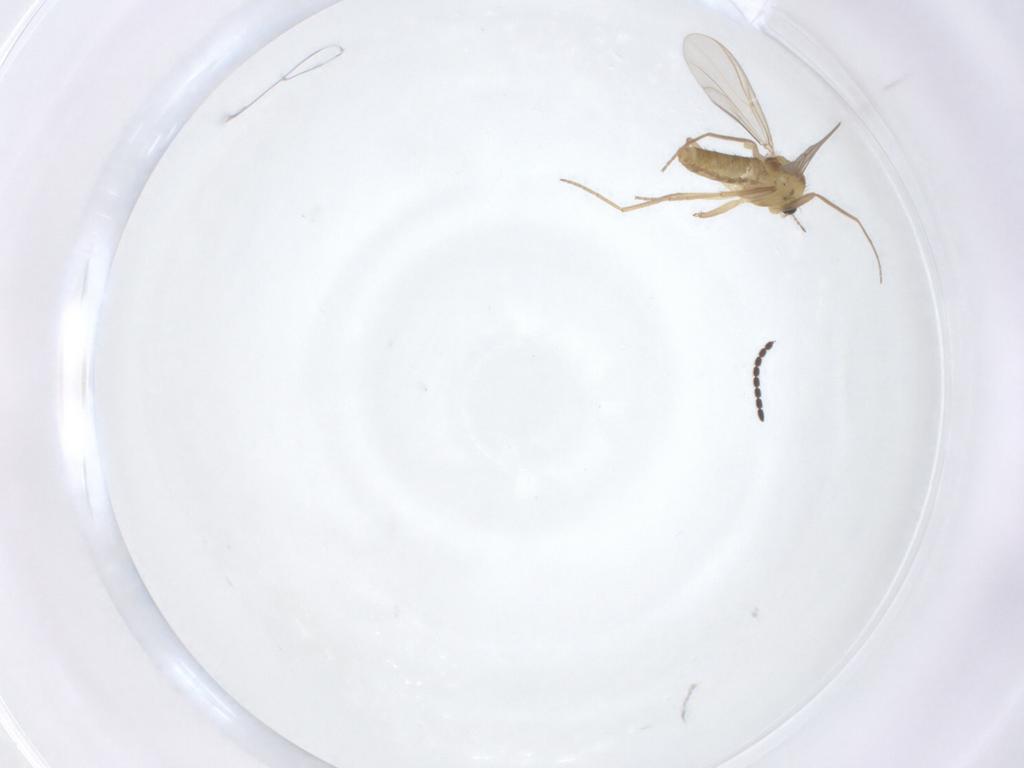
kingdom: Animalia
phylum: Arthropoda
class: Insecta
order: Diptera
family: Chironomidae
